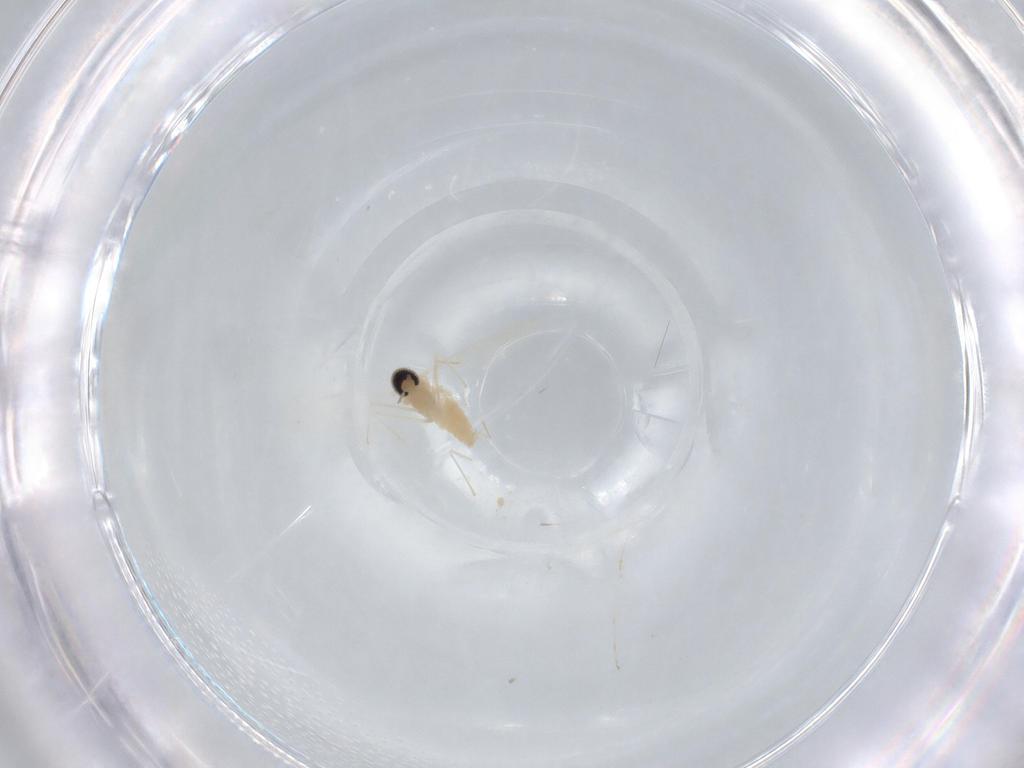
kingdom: Animalia
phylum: Arthropoda
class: Insecta
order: Diptera
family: Cecidomyiidae
